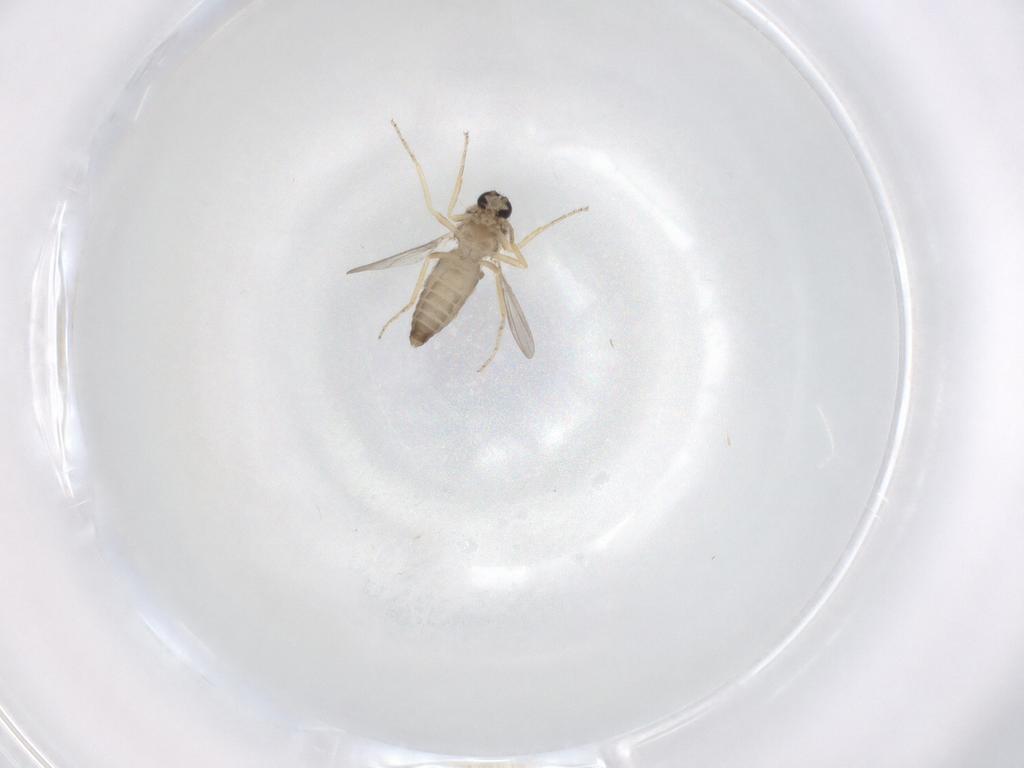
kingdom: Animalia
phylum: Arthropoda
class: Insecta
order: Diptera
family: Ceratopogonidae
